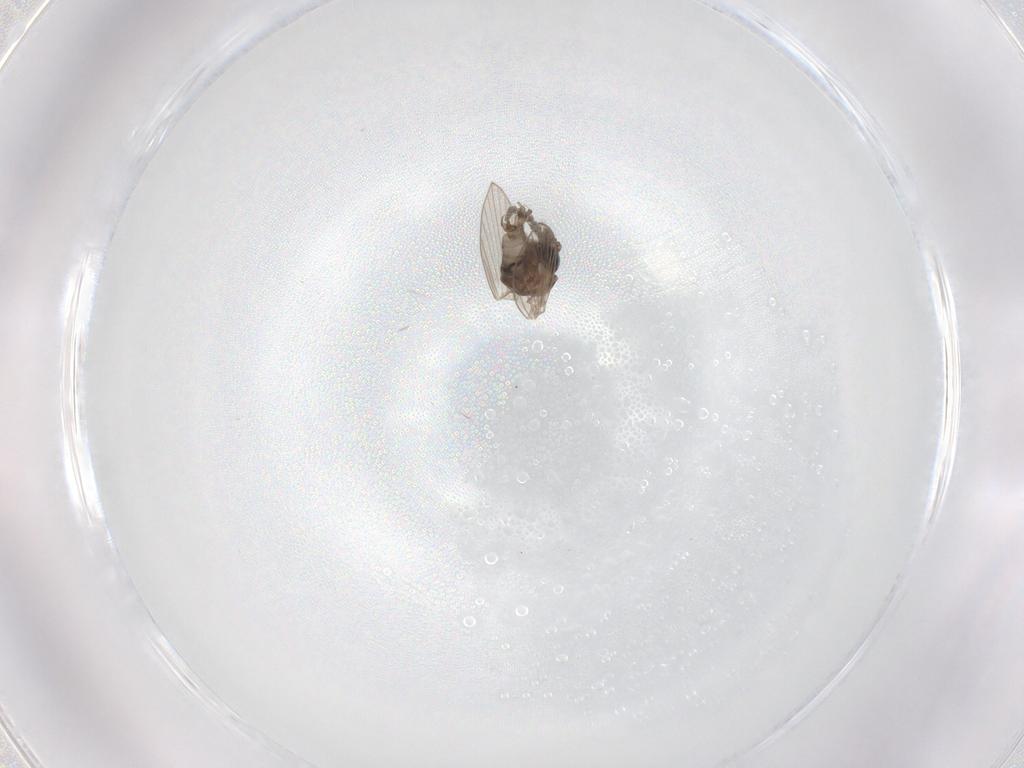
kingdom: Animalia
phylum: Arthropoda
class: Insecta
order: Diptera
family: Psychodidae
